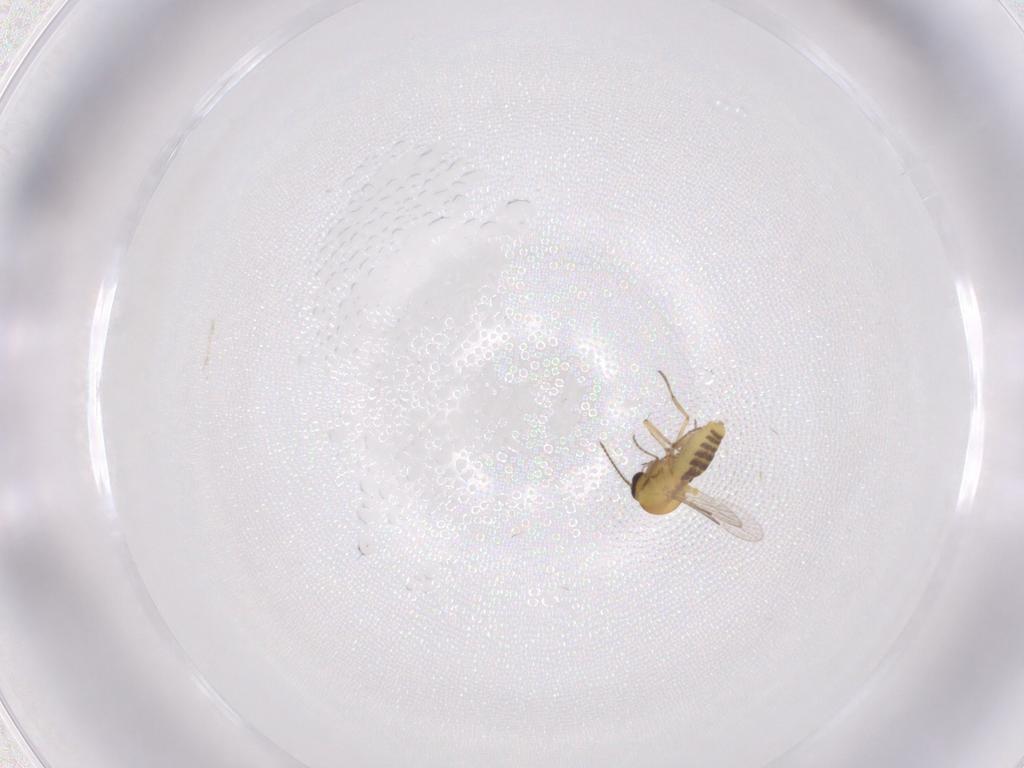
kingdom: Animalia
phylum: Arthropoda
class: Insecta
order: Diptera
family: Ceratopogonidae
